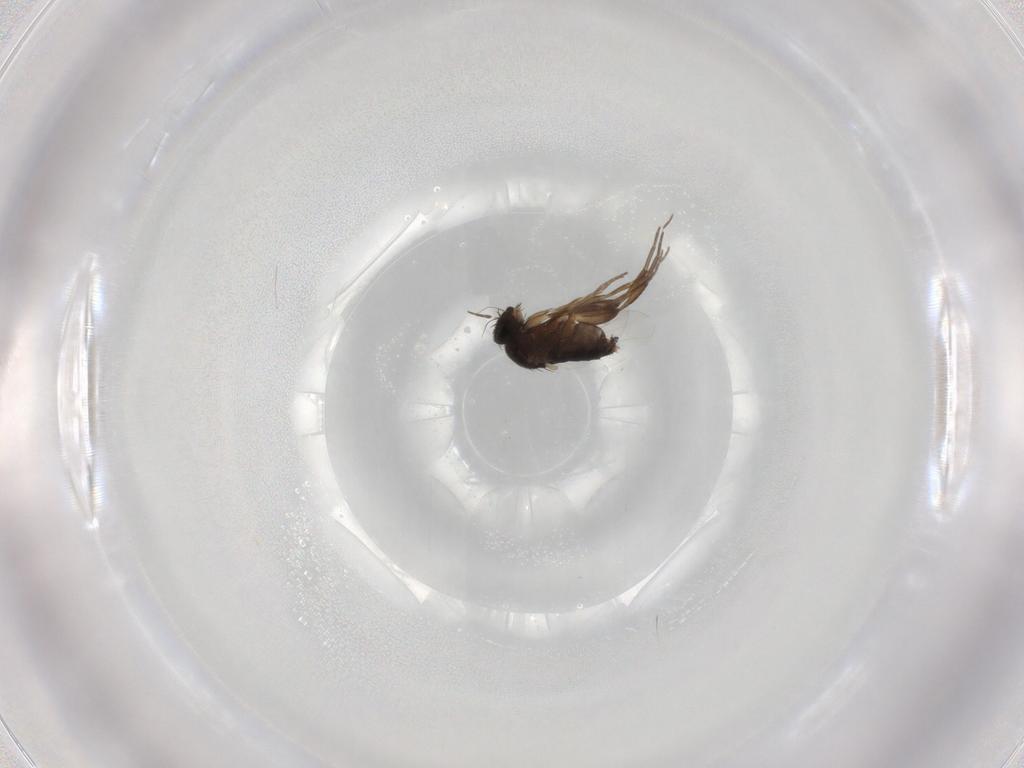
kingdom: Animalia
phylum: Arthropoda
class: Insecta
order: Diptera
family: Phoridae
